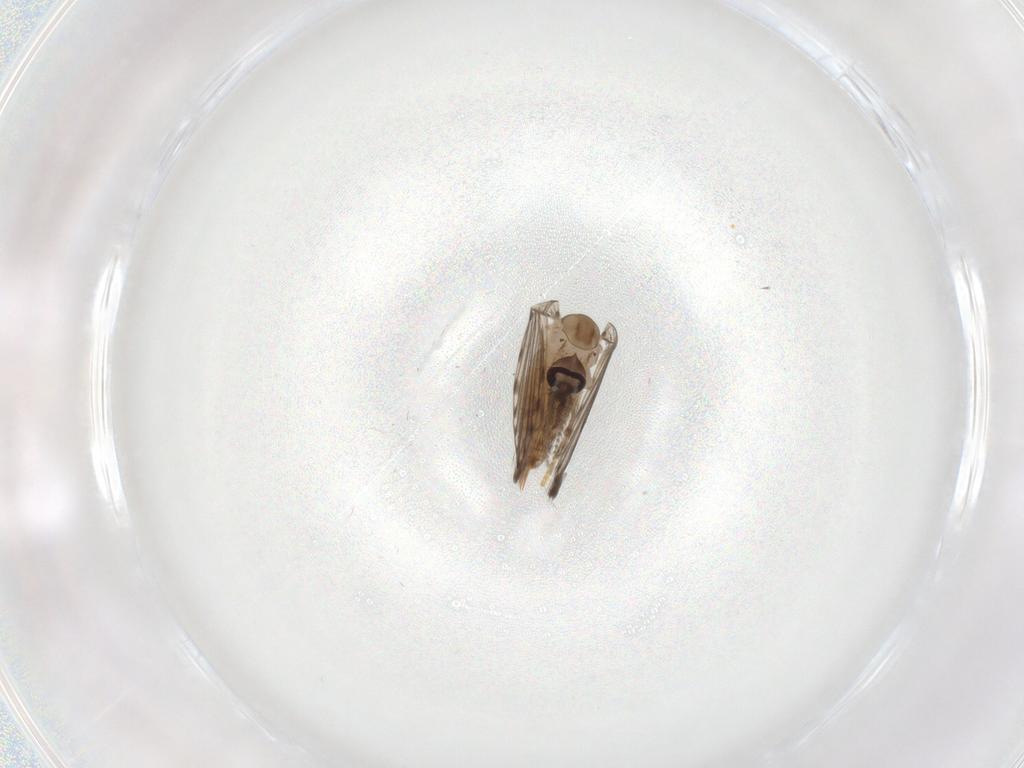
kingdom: Animalia
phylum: Arthropoda
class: Insecta
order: Diptera
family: Psychodidae
